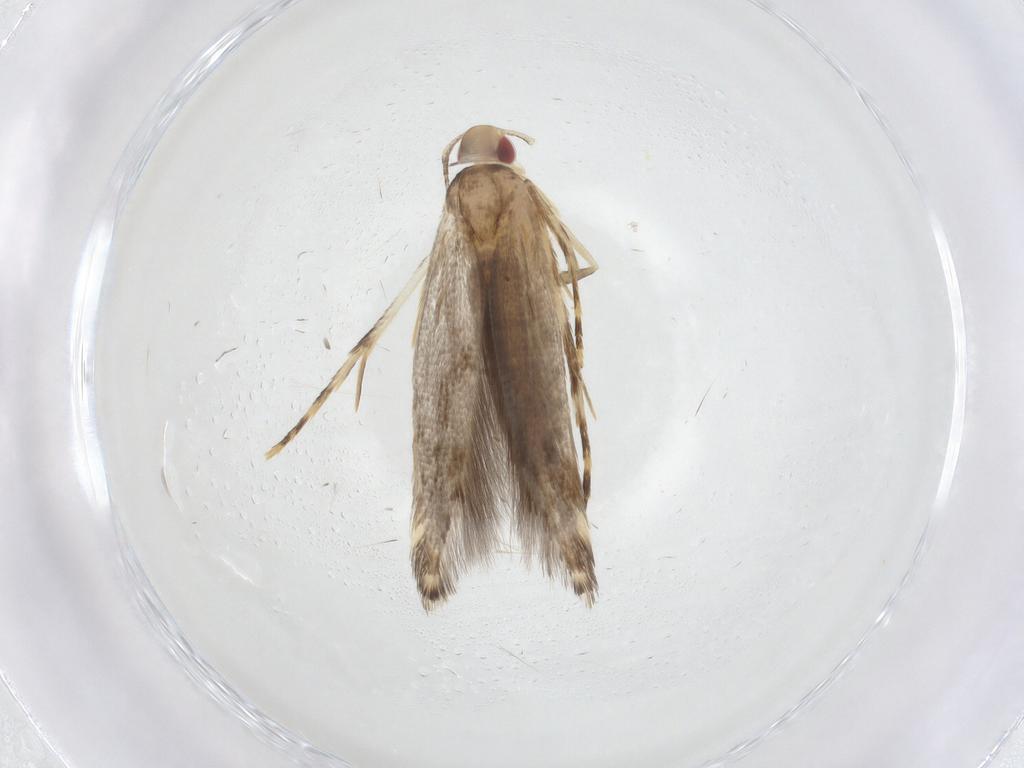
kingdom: Animalia
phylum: Arthropoda
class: Insecta
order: Lepidoptera
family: Cosmopterigidae
